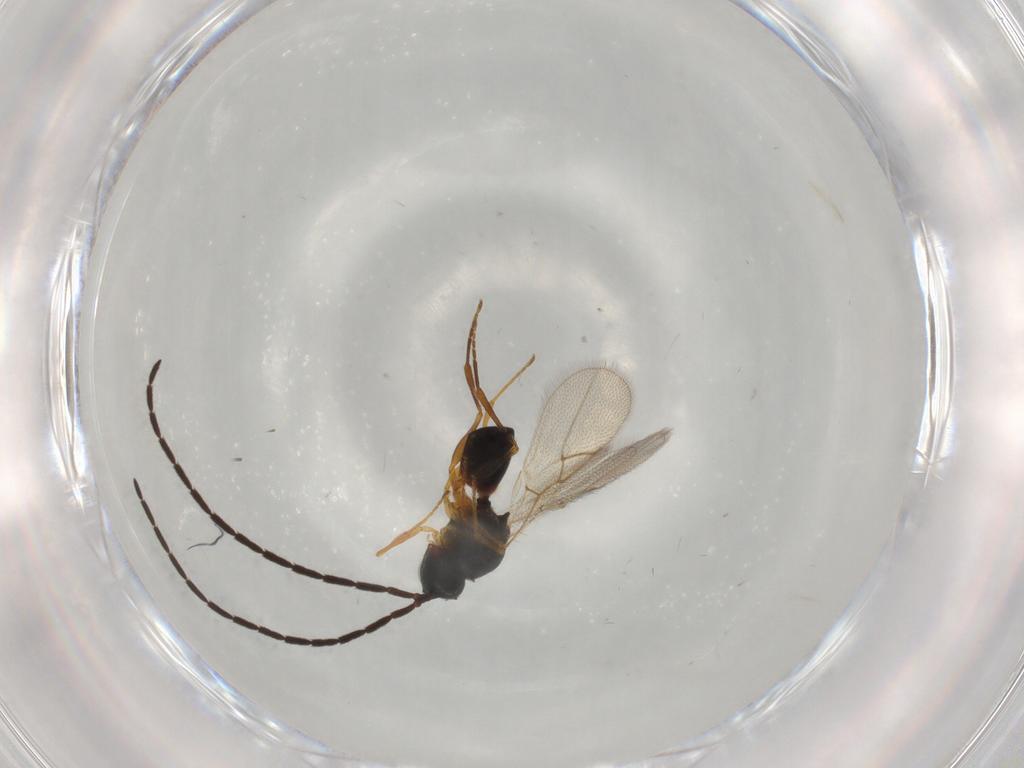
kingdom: Animalia
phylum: Arthropoda
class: Insecta
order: Hymenoptera
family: Figitidae
